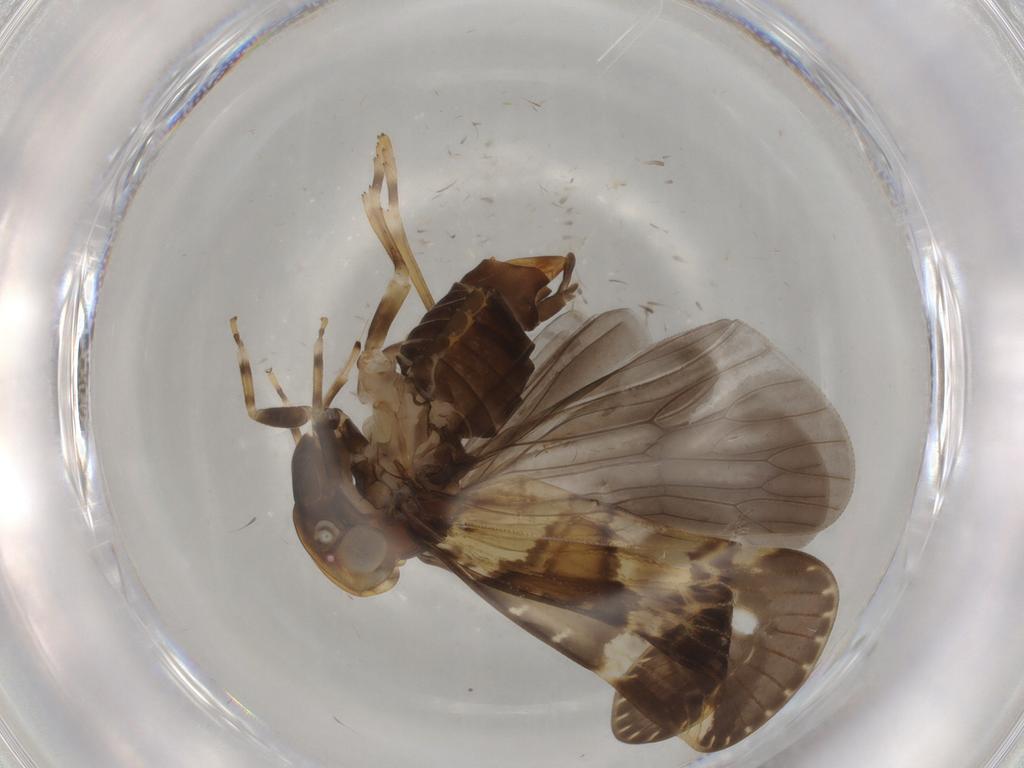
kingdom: Animalia
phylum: Arthropoda
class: Insecta
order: Hemiptera
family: Cixiidae
